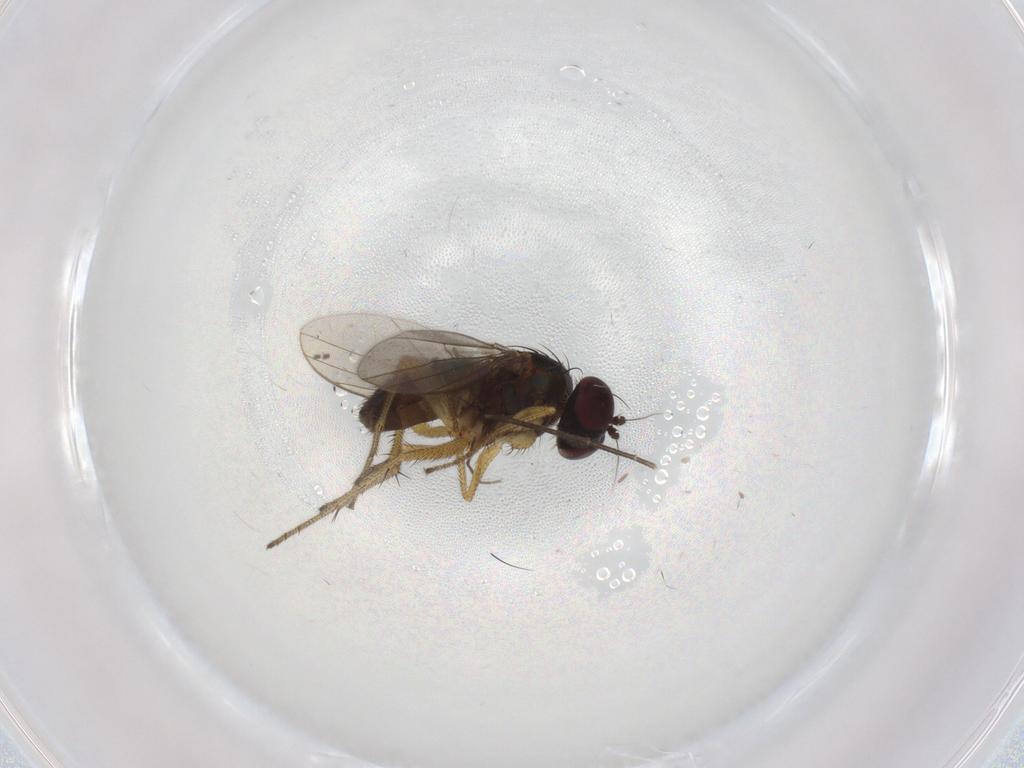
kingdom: Animalia
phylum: Arthropoda
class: Insecta
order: Diptera
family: Culicidae
